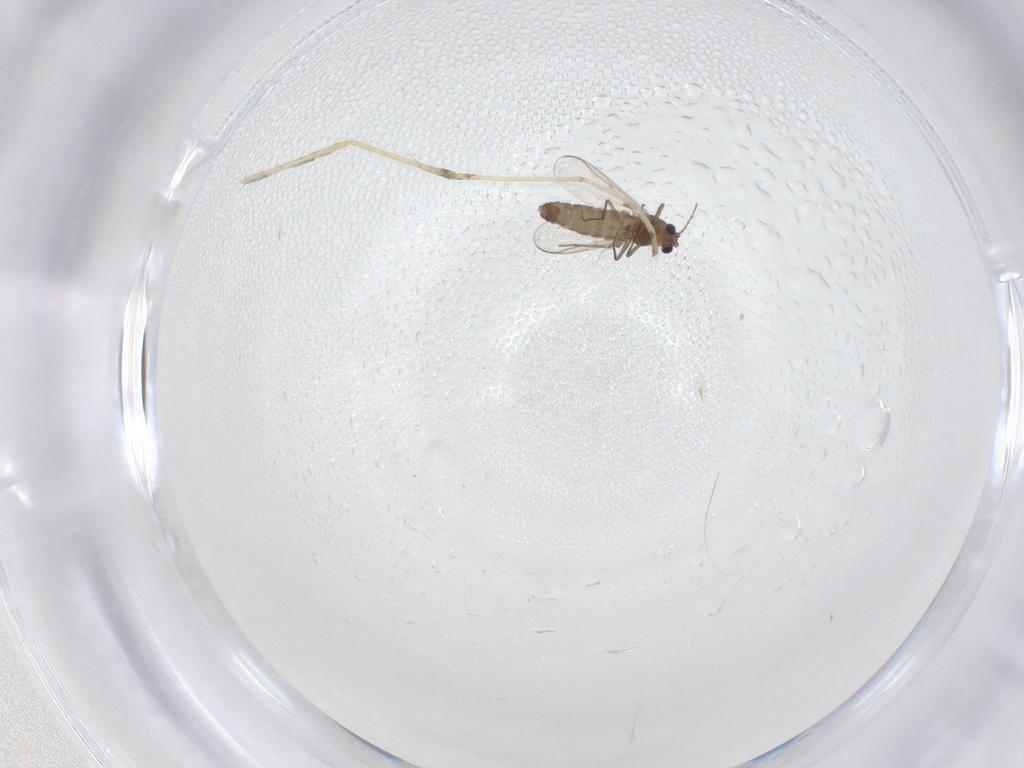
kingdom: Animalia
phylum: Arthropoda
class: Insecta
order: Diptera
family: Chironomidae
